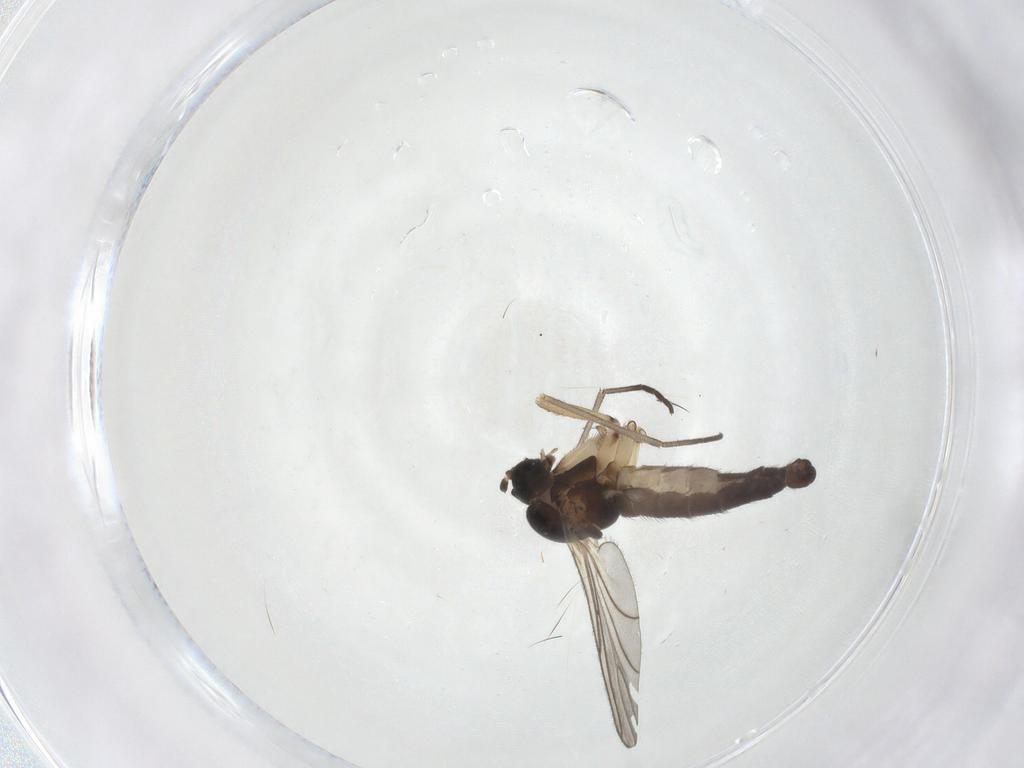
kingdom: Animalia
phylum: Arthropoda
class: Insecta
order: Diptera
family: Sciaridae
